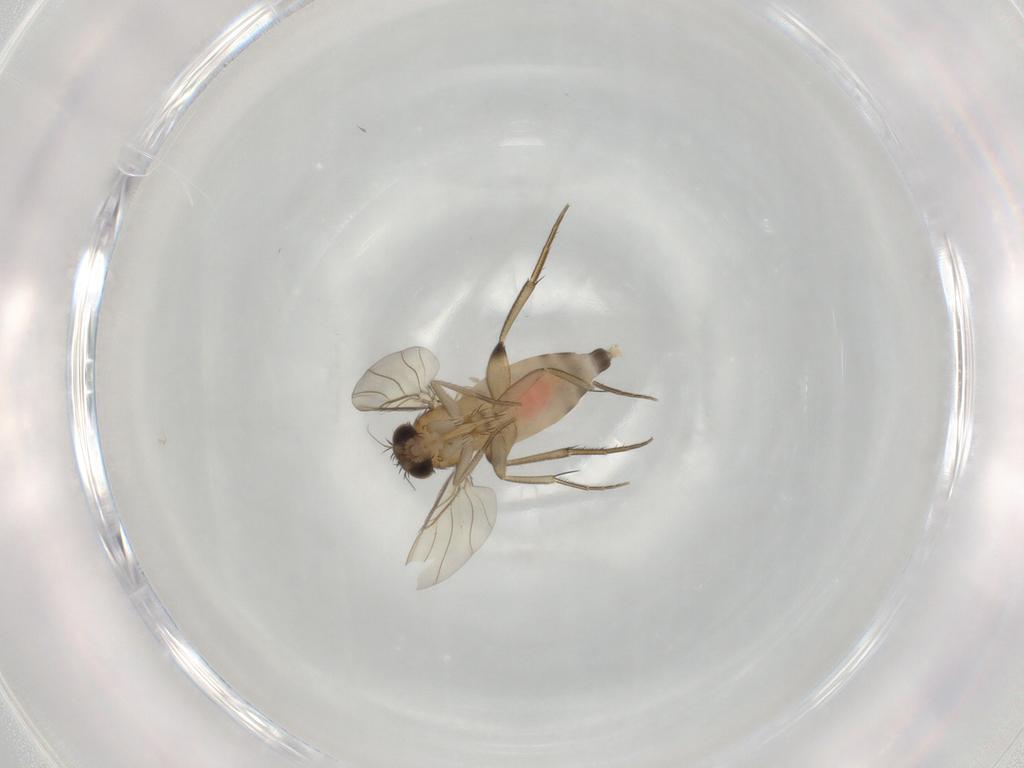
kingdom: Animalia
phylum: Arthropoda
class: Insecta
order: Diptera
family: Phoridae
